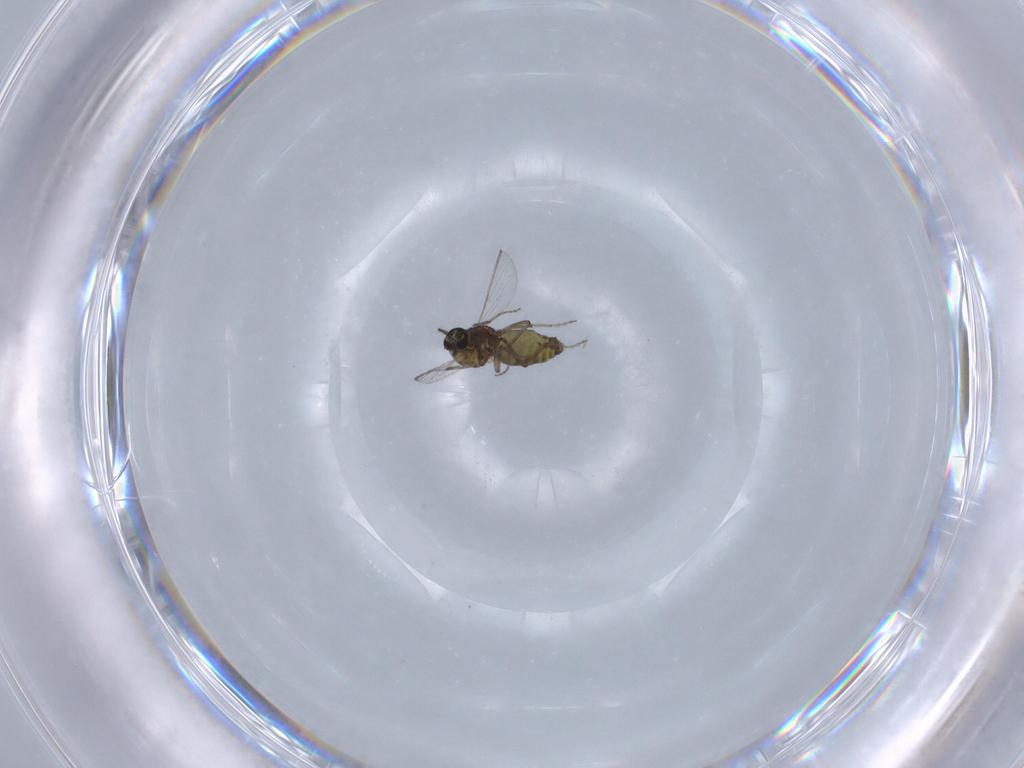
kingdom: Animalia
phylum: Arthropoda
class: Insecta
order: Diptera
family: Ceratopogonidae
